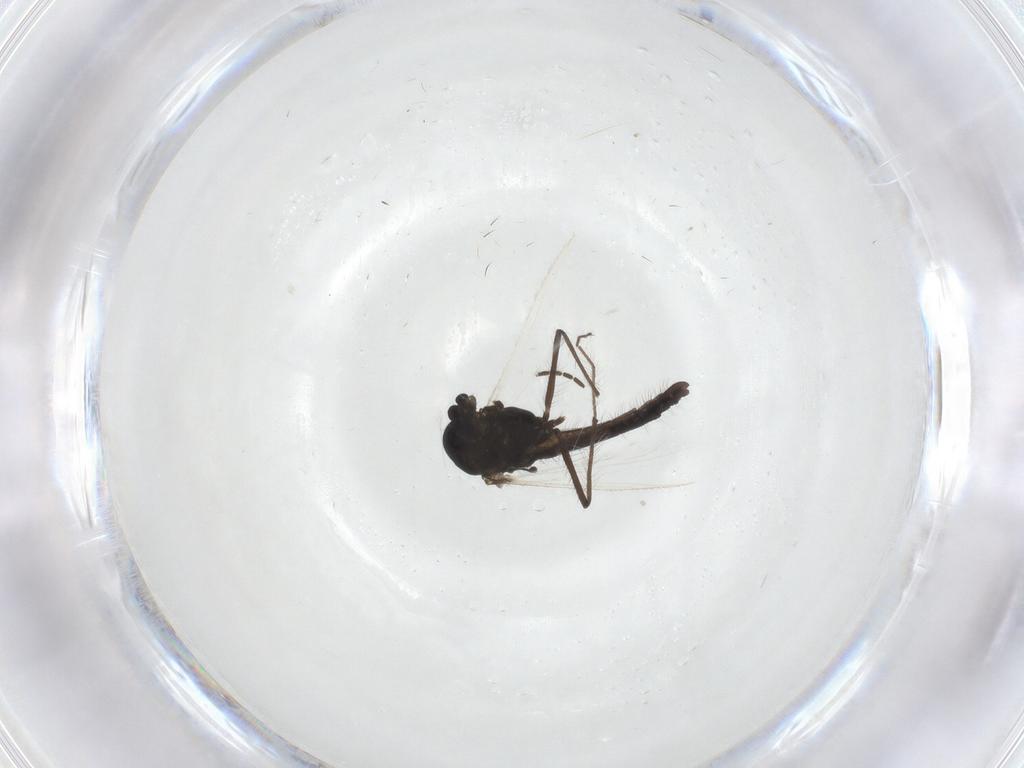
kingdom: Animalia
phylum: Arthropoda
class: Insecta
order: Diptera
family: Sciaridae
